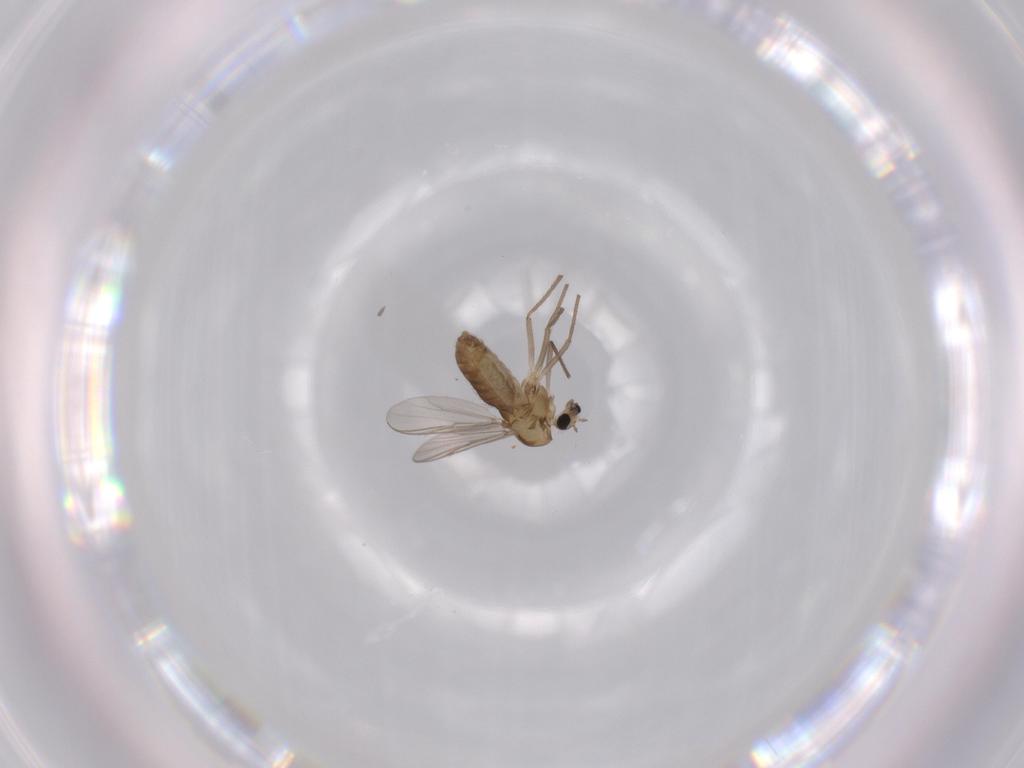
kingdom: Animalia
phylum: Arthropoda
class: Insecta
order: Diptera
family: Chironomidae
